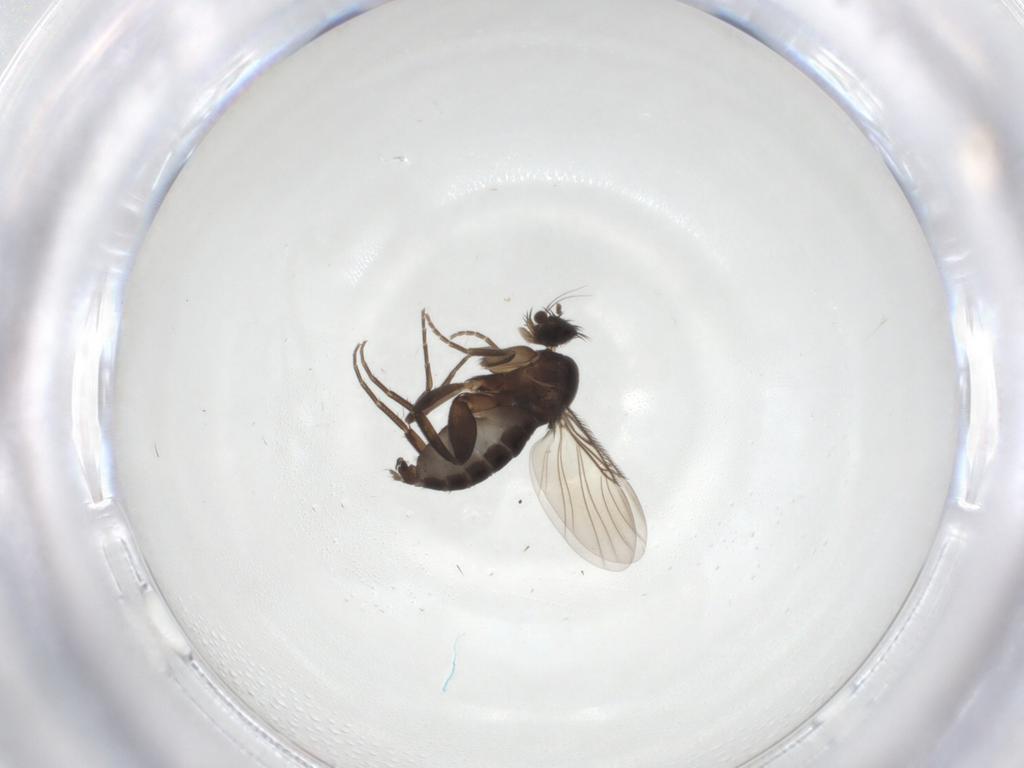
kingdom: Animalia
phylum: Arthropoda
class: Insecta
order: Diptera
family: Phoridae
